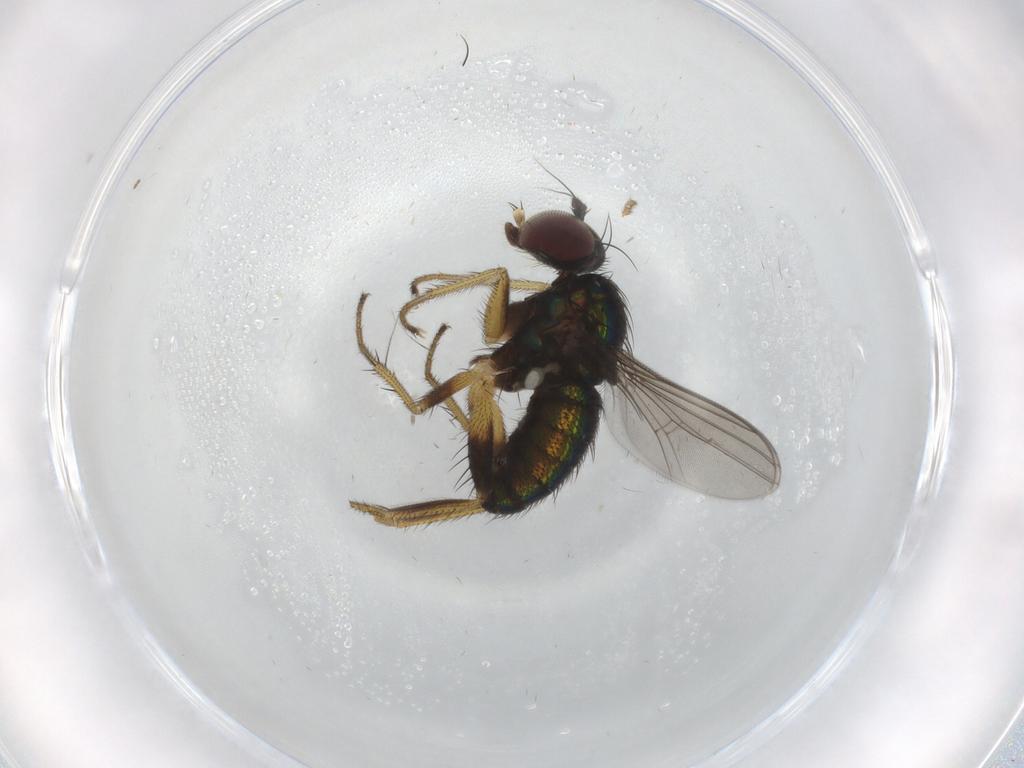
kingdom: Animalia
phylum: Arthropoda
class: Insecta
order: Diptera
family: Dolichopodidae
